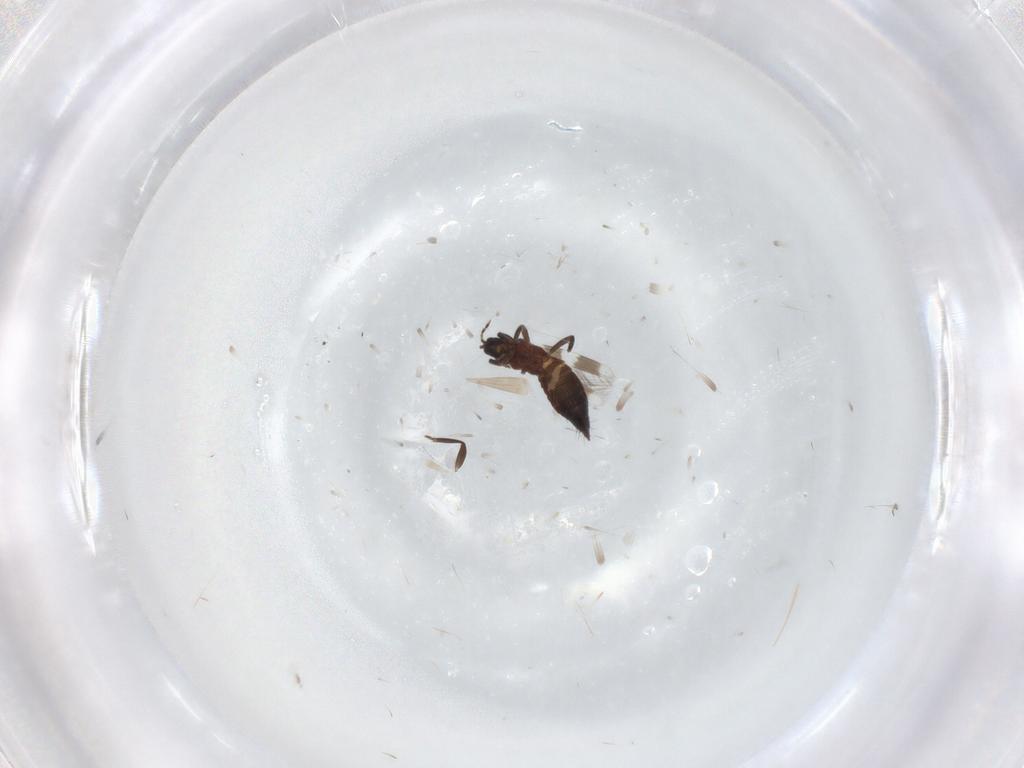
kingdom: Animalia
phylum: Arthropoda
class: Insecta
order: Thysanoptera
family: Aeolothripidae
